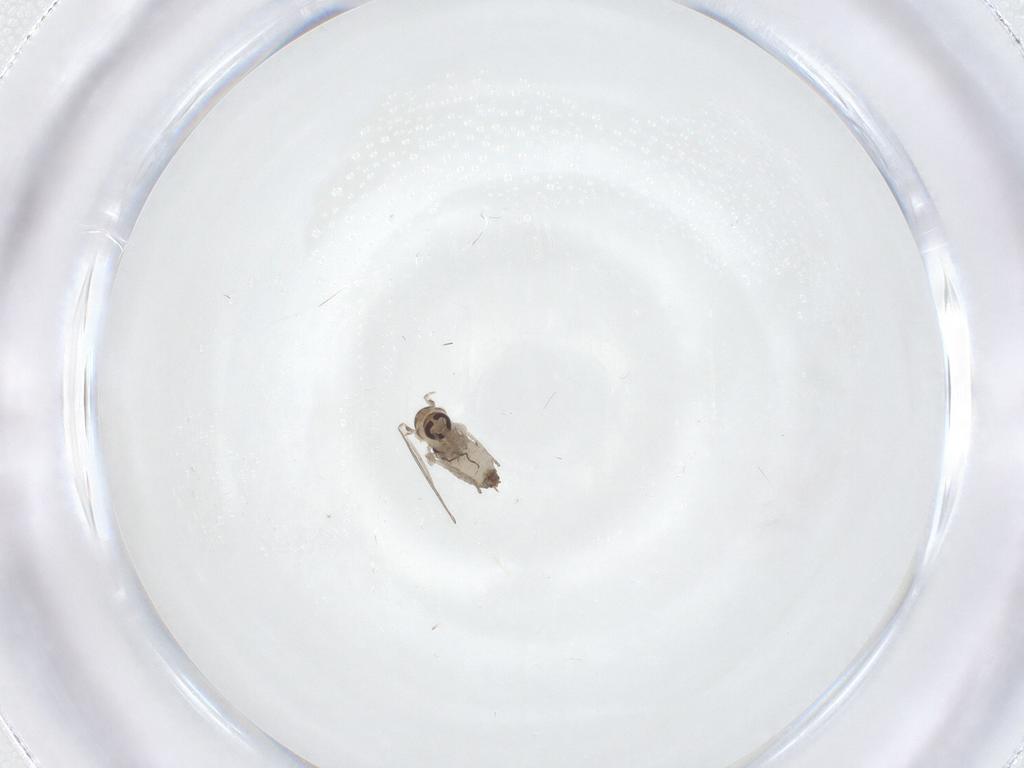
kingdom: Animalia
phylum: Arthropoda
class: Insecta
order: Diptera
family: Psychodidae
